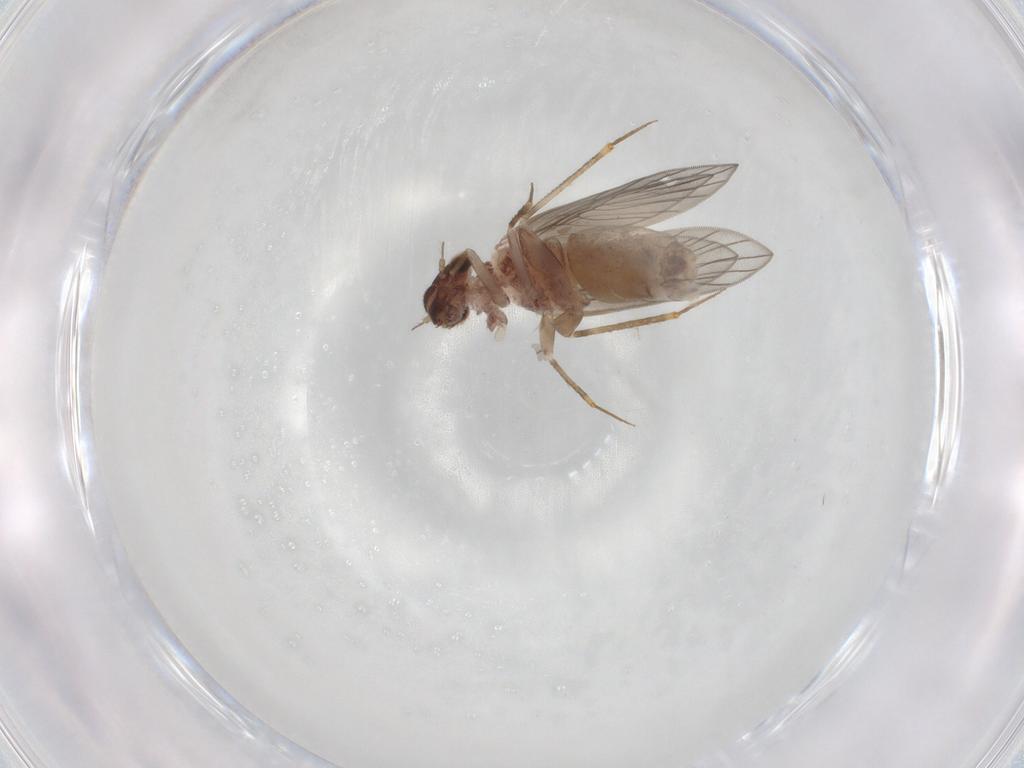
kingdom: Animalia
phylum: Arthropoda
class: Insecta
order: Psocodea
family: Lepidopsocidae
